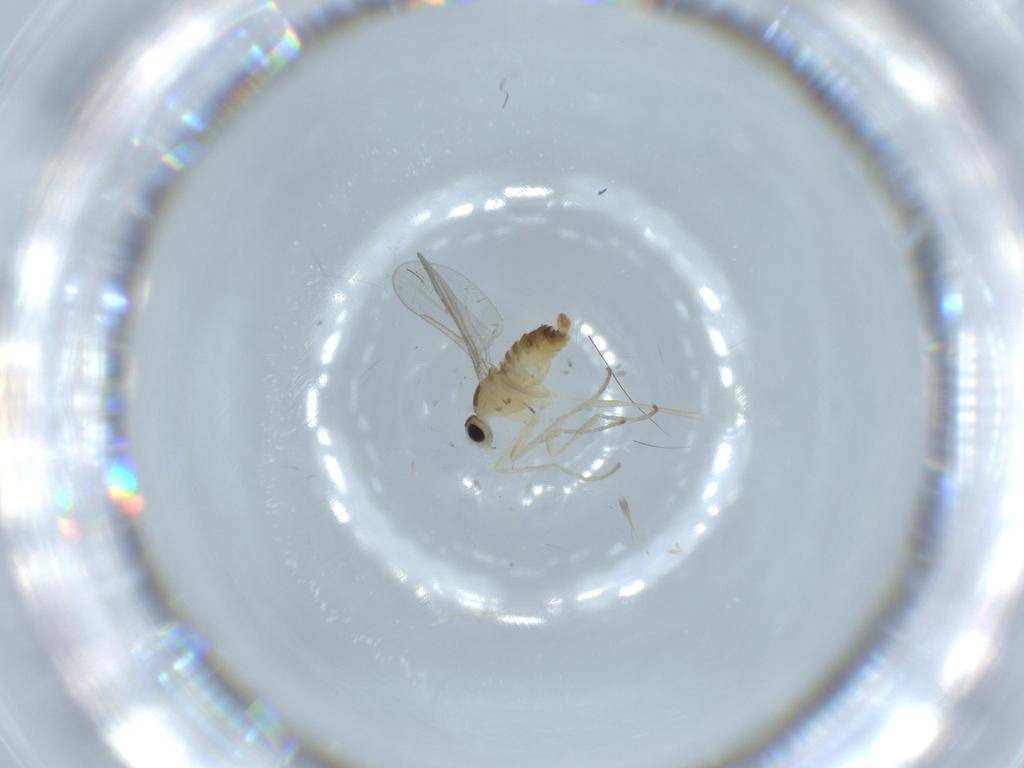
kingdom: Animalia
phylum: Arthropoda
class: Insecta
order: Diptera
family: Cecidomyiidae
